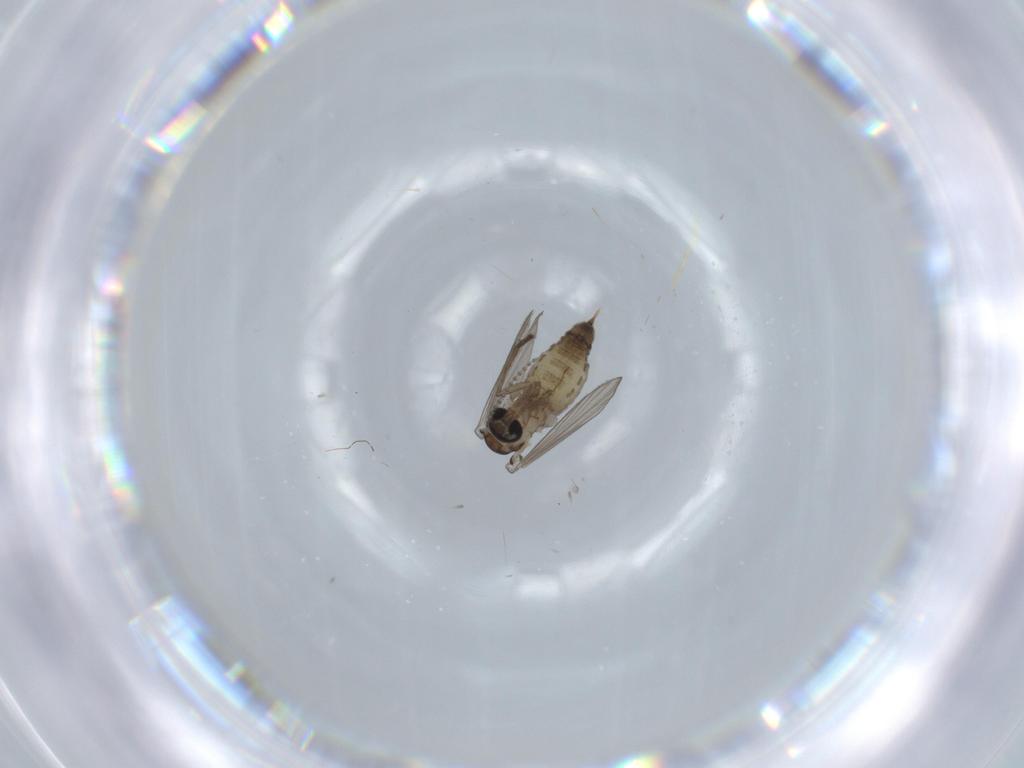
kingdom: Animalia
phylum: Arthropoda
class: Insecta
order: Diptera
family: Psychodidae
